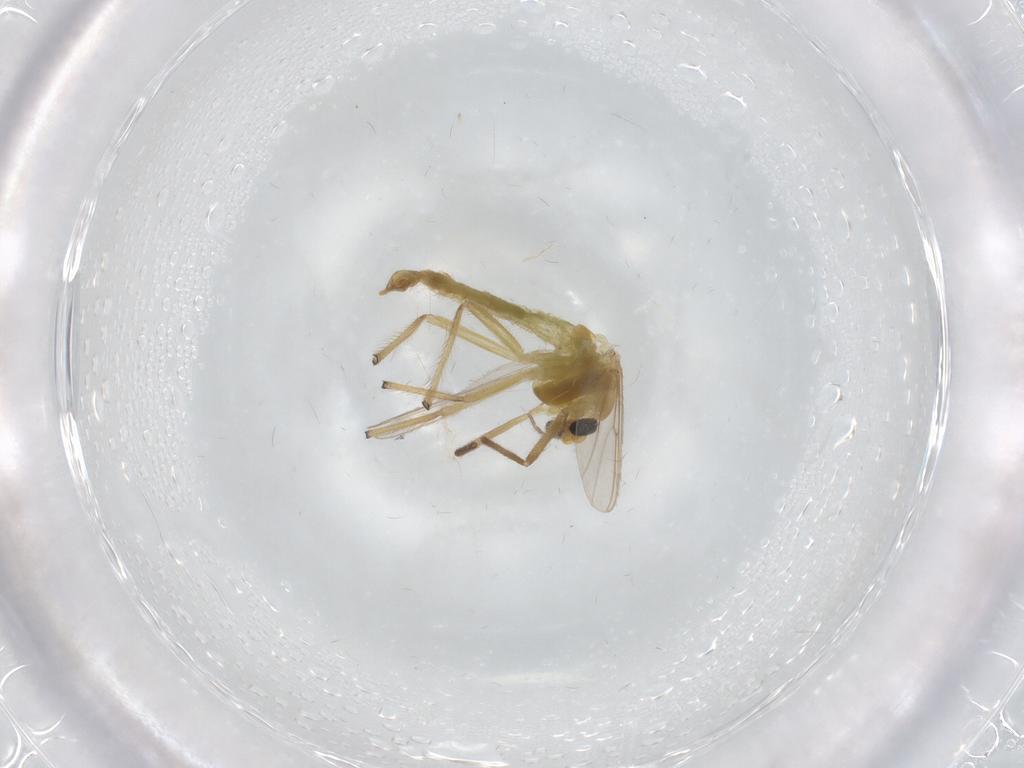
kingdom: Animalia
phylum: Arthropoda
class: Insecta
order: Diptera
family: Chironomidae
